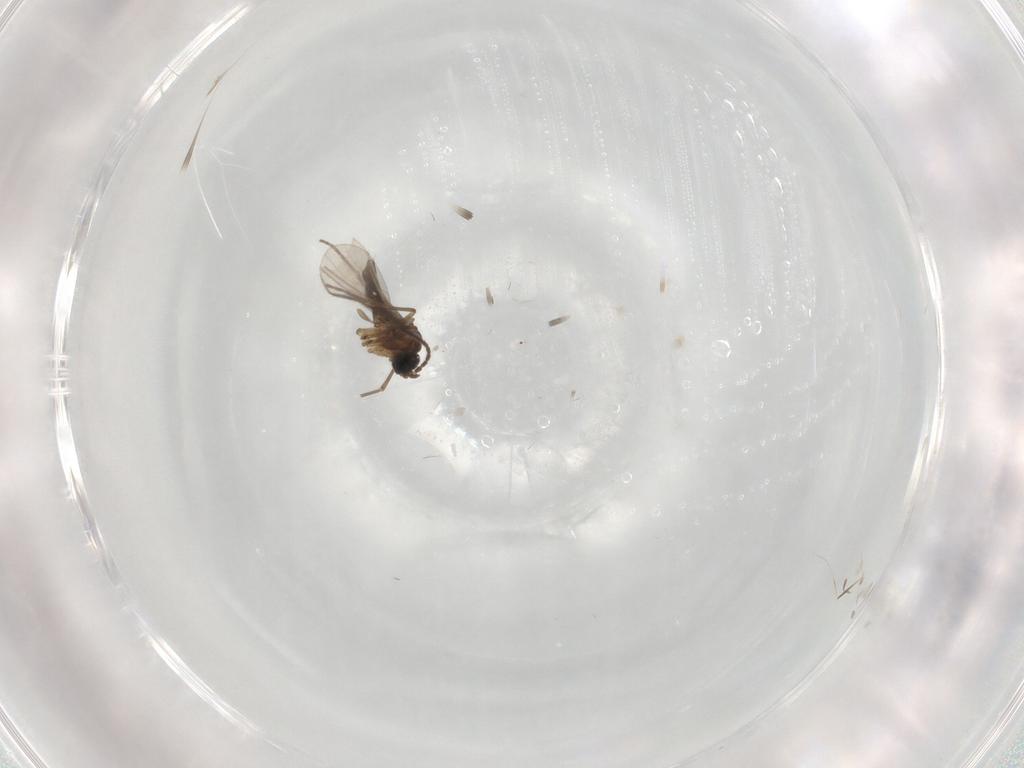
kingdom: Animalia
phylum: Arthropoda
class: Insecta
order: Diptera
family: Sciaridae
